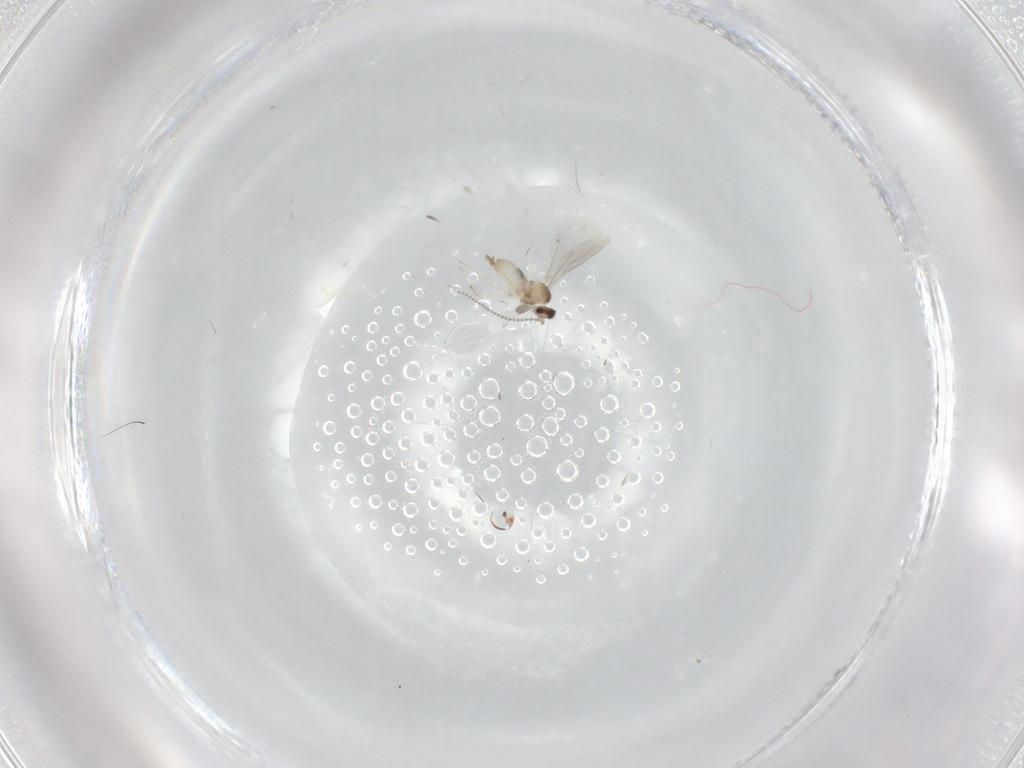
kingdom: Animalia
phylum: Arthropoda
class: Insecta
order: Diptera
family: Cecidomyiidae
